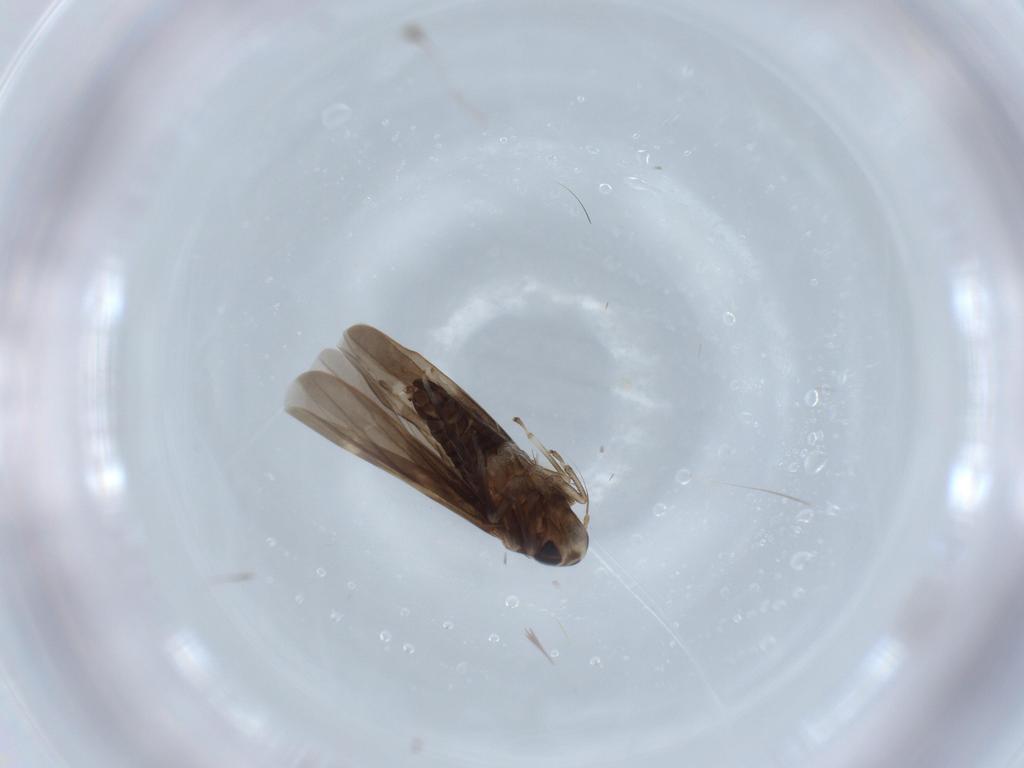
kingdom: Animalia
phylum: Arthropoda
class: Insecta
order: Hemiptera
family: Cicadellidae
